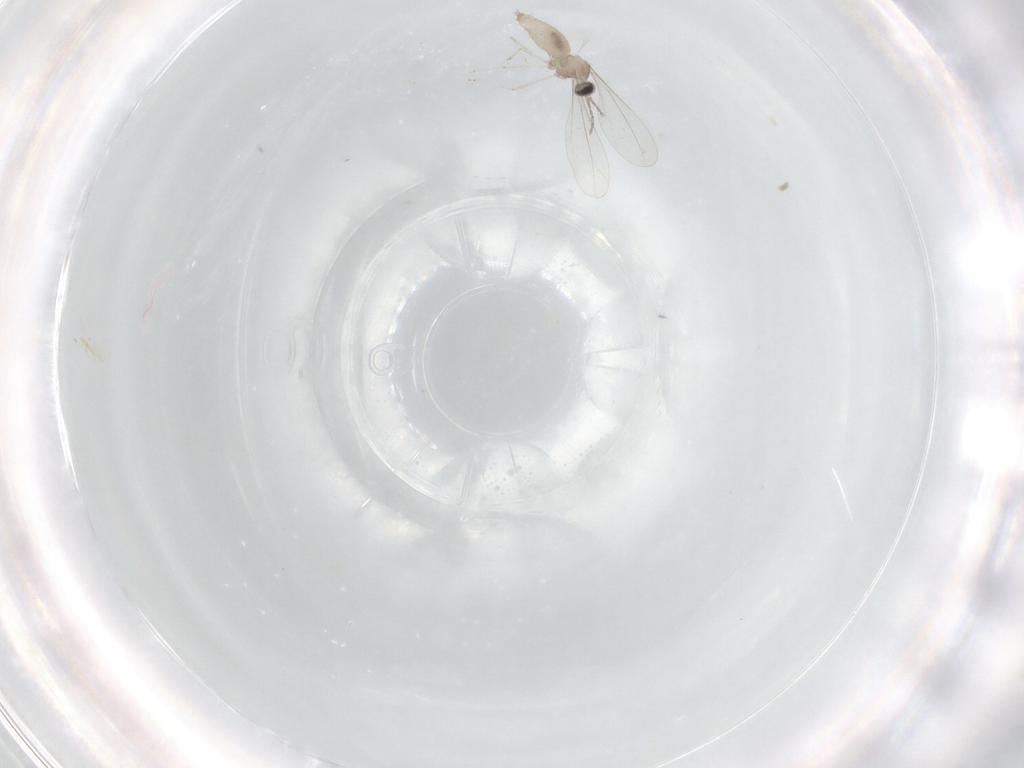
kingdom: Animalia
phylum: Arthropoda
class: Insecta
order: Diptera
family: Cecidomyiidae
